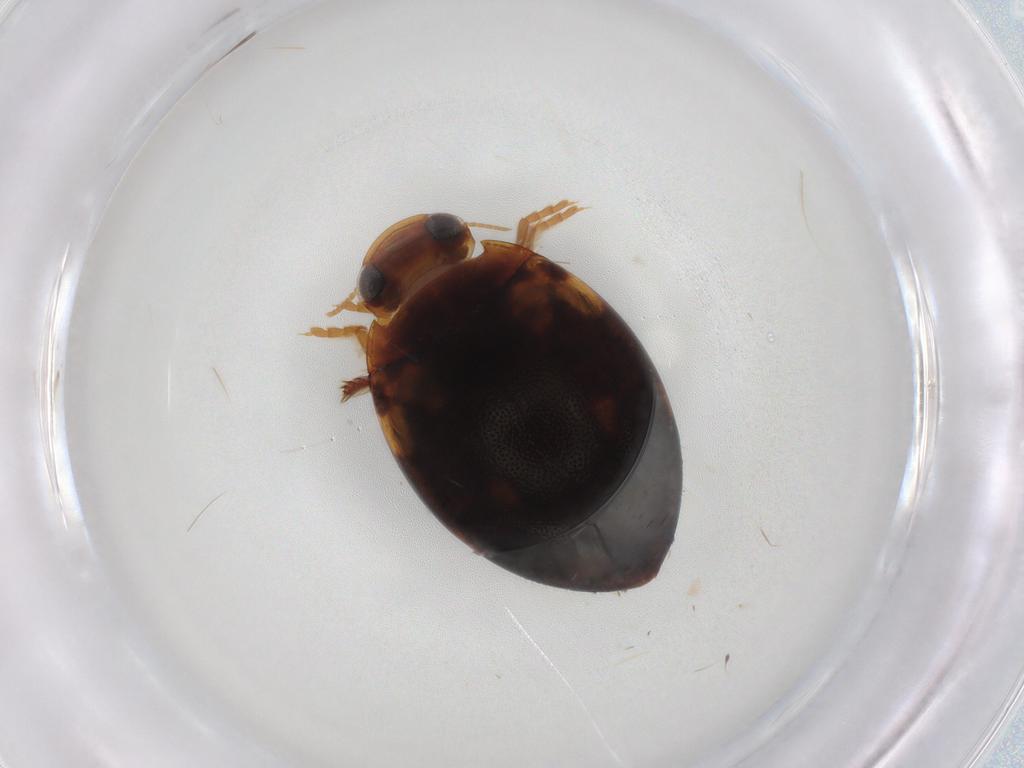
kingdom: Animalia
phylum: Arthropoda
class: Insecta
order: Coleoptera
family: Dytiscidae
